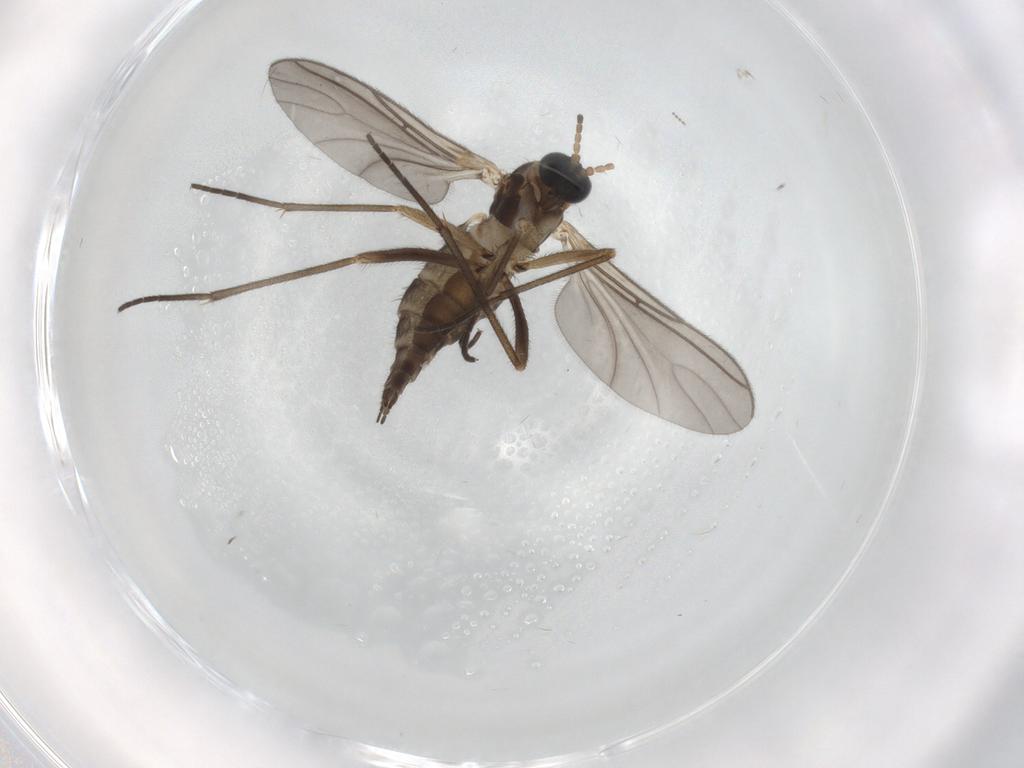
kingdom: Animalia
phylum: Arthropoda
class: Insecta
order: Diptera
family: Sciaridae
